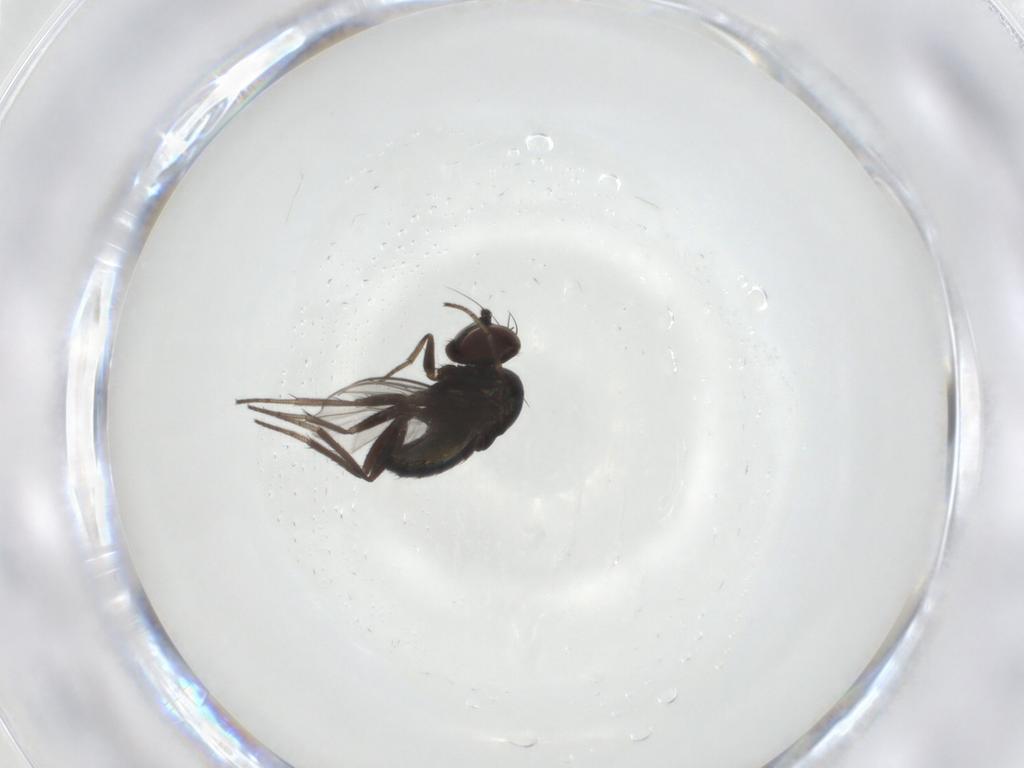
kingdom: Animalia
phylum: Arthropoda
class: Insecta
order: Diptera
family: Dolichopodidae
